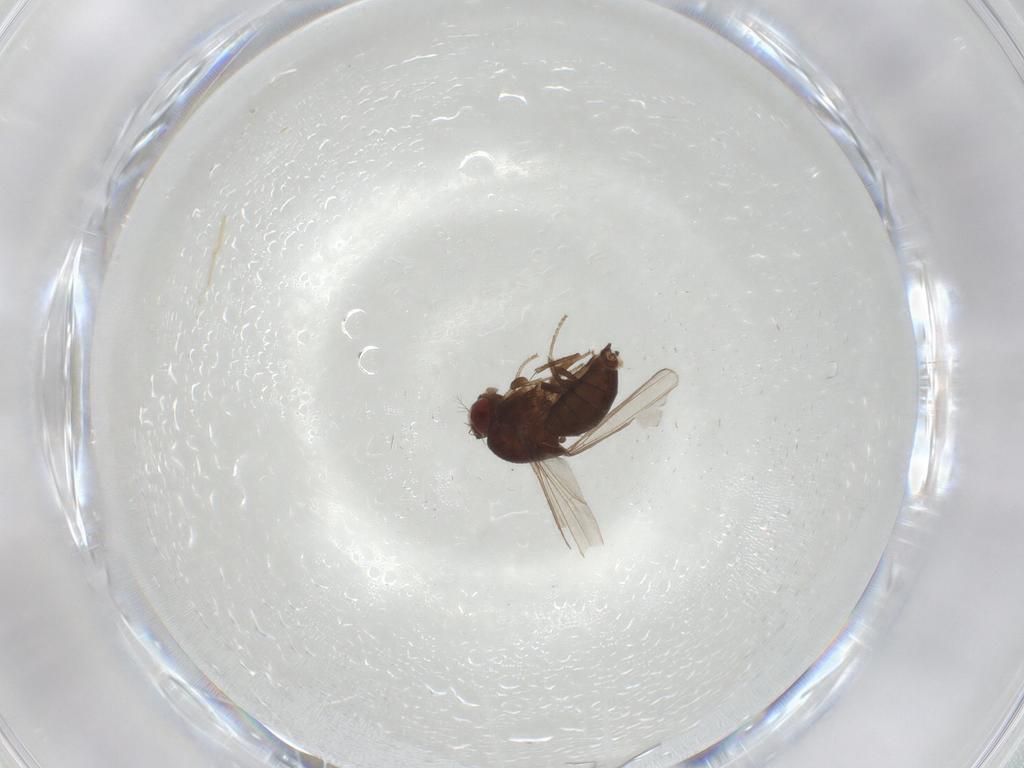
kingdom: Animalia
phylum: Arthropoda
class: Insecta
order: Diptera
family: Drosophilidae
